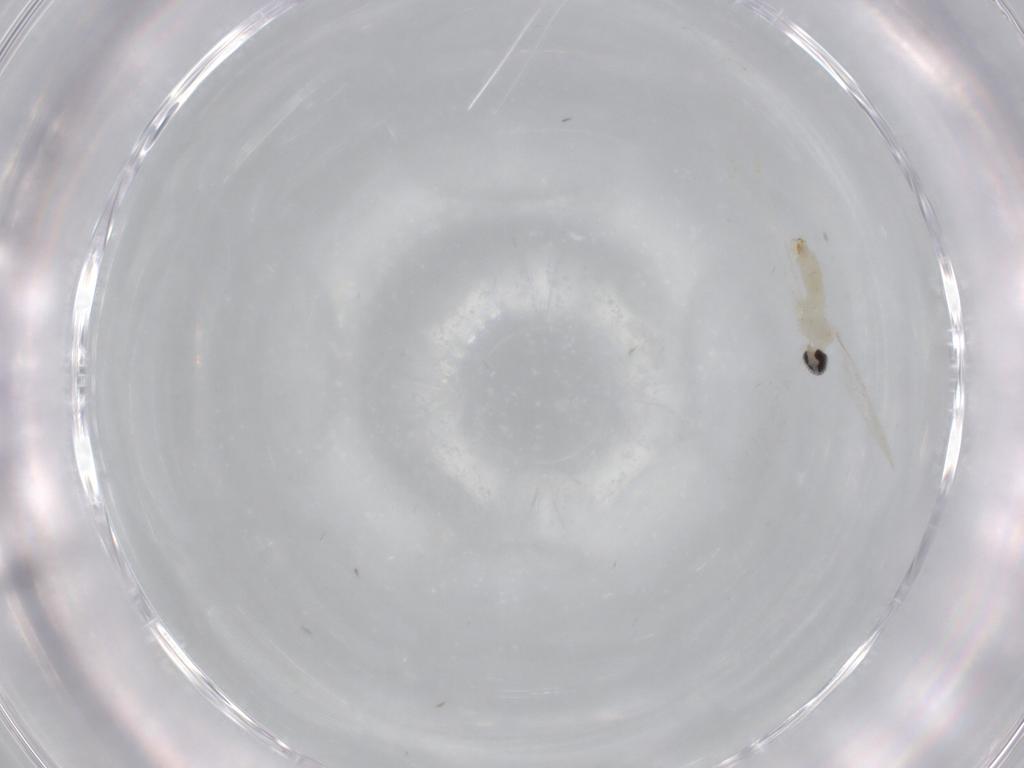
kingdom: Animalia
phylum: Arthropoda
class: Insecta
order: Diptera
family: Cecidomyiidae
